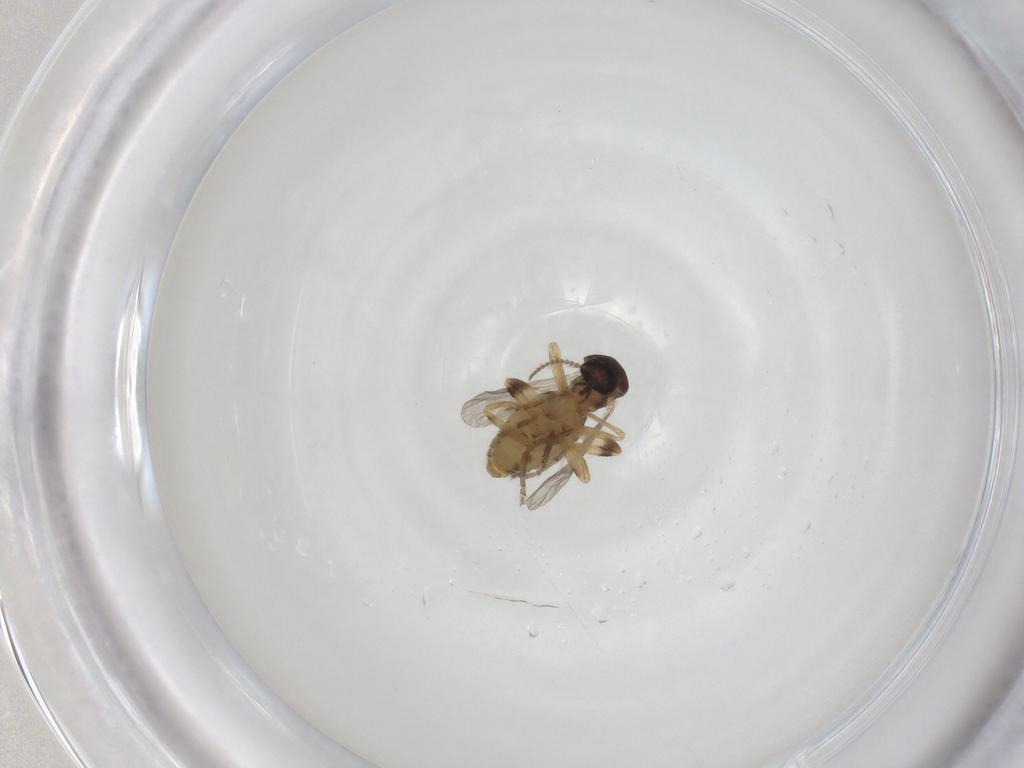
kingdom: Animalia
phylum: Arthropoda
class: Insecta
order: Diptera
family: Ceratopogonidae
